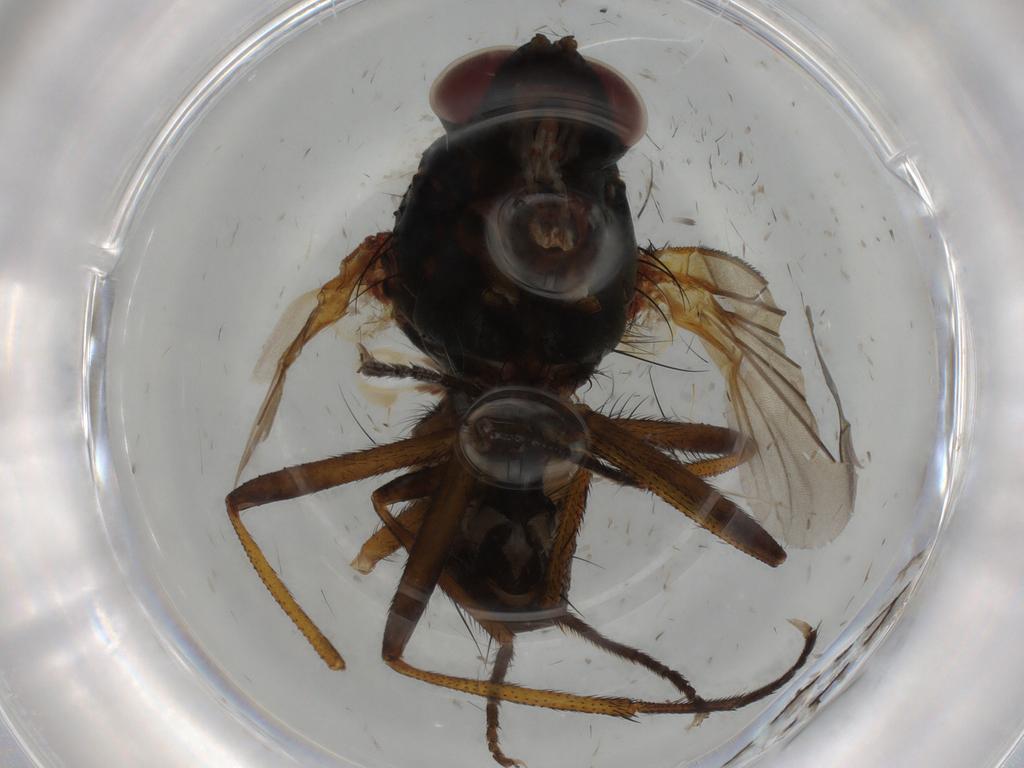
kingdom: Animalia
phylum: Arthropoda
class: Insecta
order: Diptera
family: Anthomyiidae
